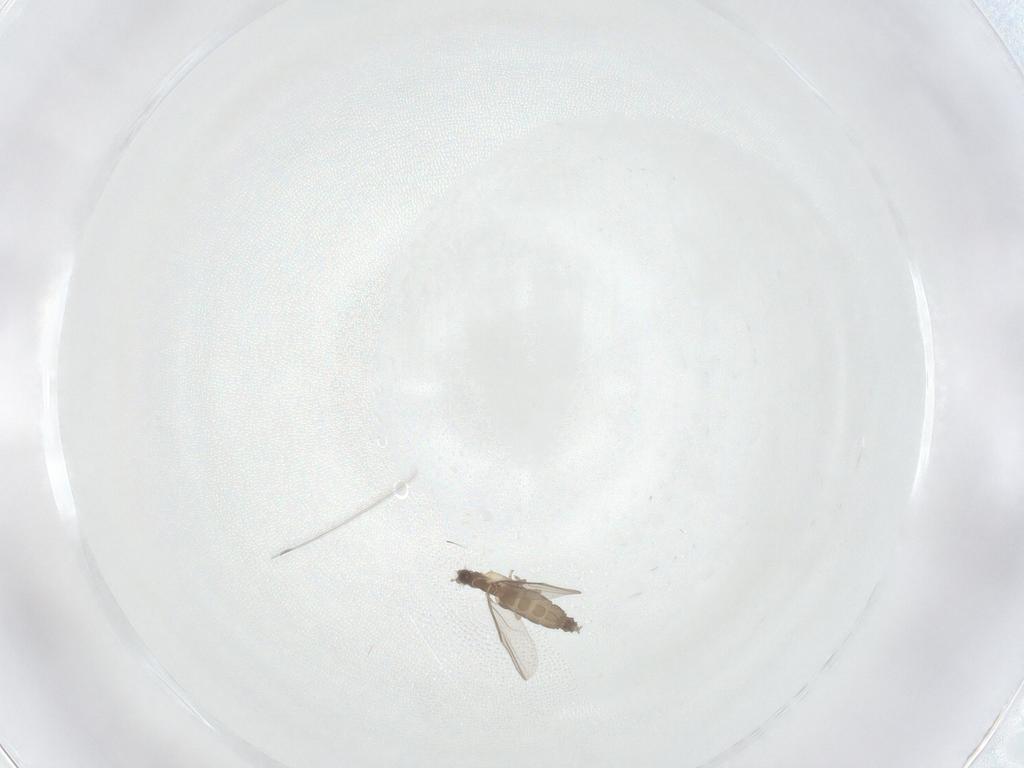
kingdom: Animalia
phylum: Arthropoda
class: Insecta
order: Diptera
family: Phoridae
